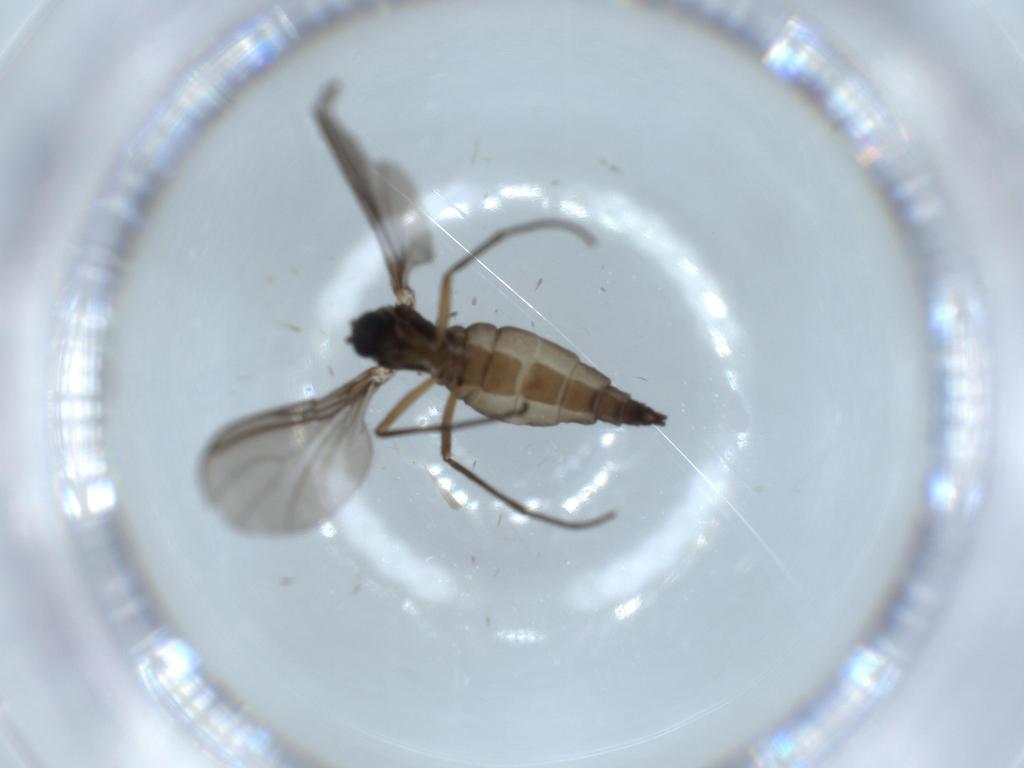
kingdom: Animalia
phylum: Arthropoda
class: Insecta
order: Diptera
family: Sciaridae
